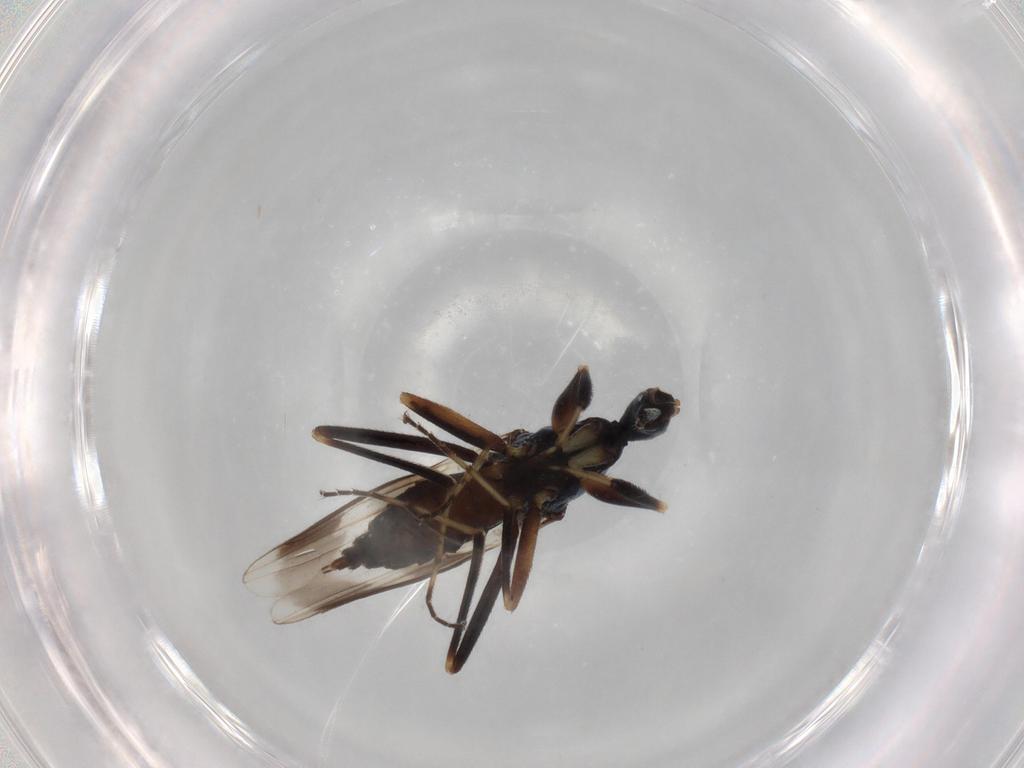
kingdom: Animalia
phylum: Arthropoda
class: Insecta
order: Diptera
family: Hybotidae
